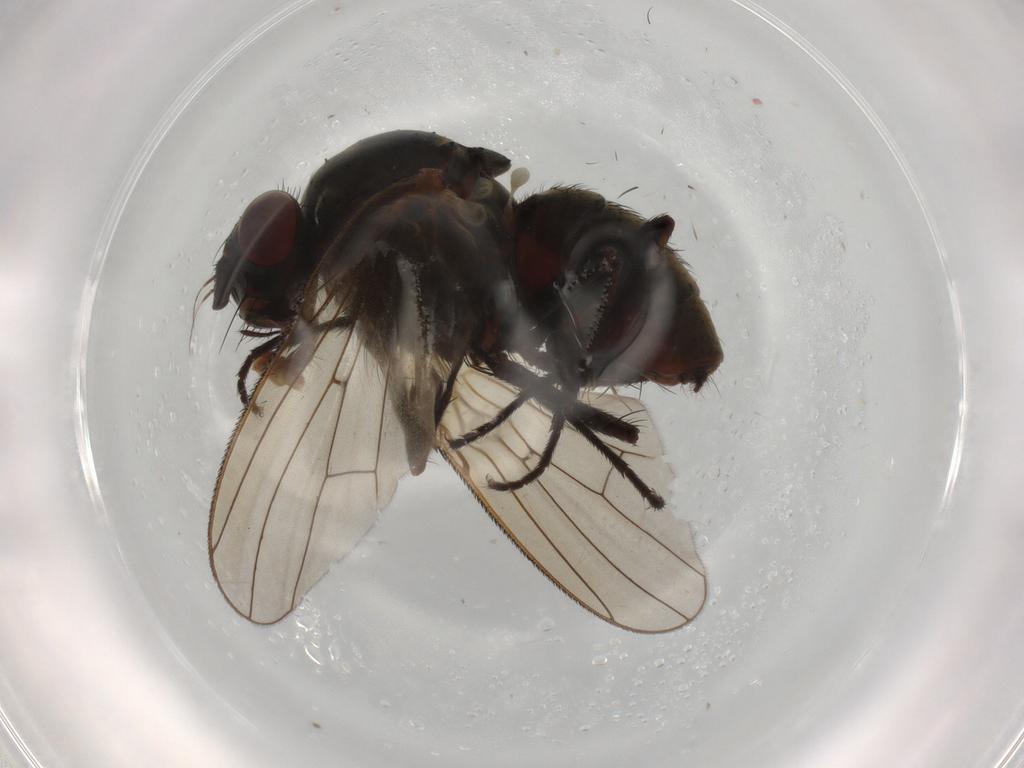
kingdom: Animalia
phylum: Arthropoda
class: Insecta
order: Diptera
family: Anthomyiidae
